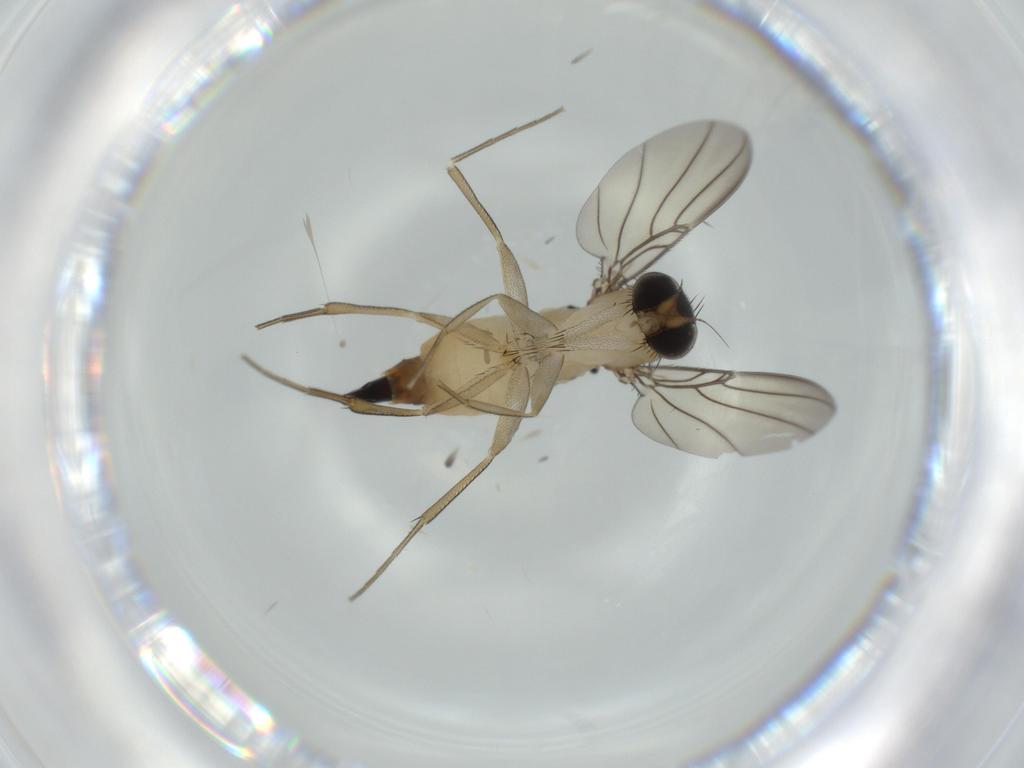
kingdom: Animalia
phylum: Arthropoda
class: Insecta
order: Diptera
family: Phoridae
